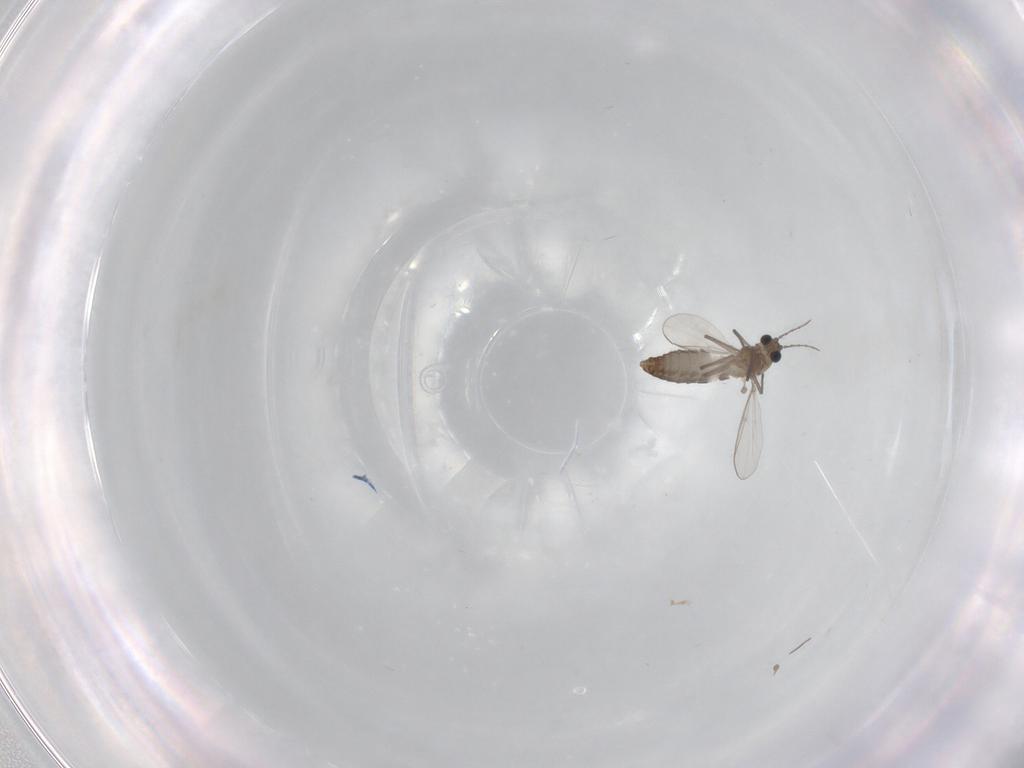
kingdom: Animalia
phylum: Arthropoda
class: Insecta
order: Diptera
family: Chironomidae
